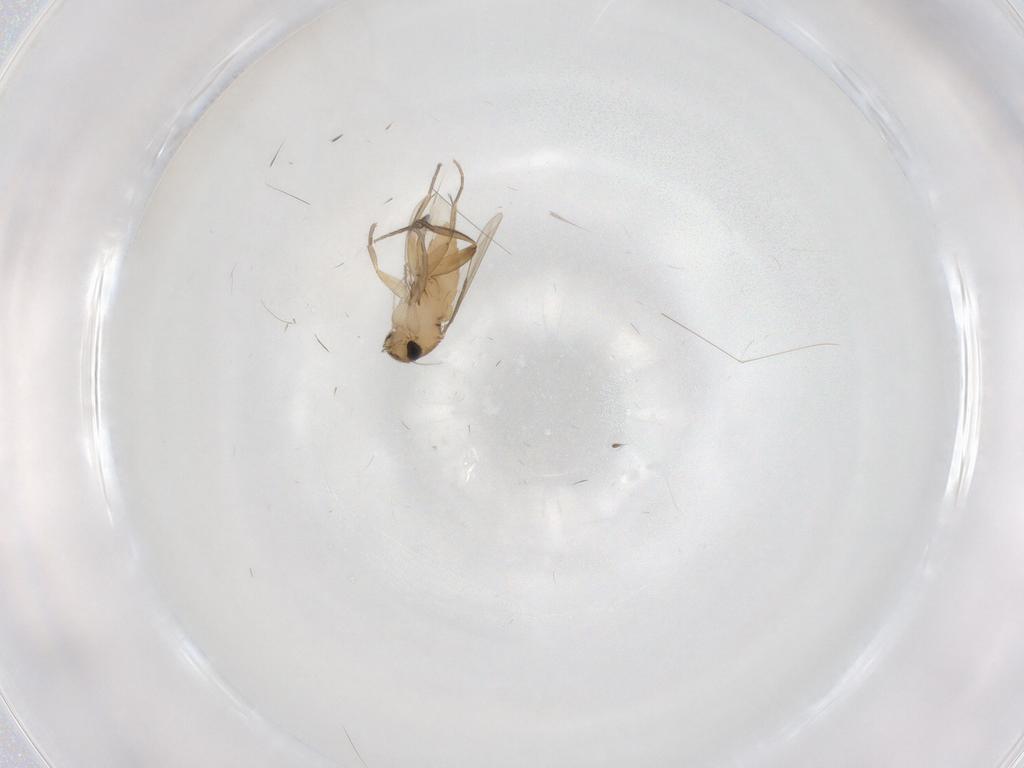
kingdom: Animalia
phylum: Arthropoda
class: Insecta
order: Diptera
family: Phoridae
